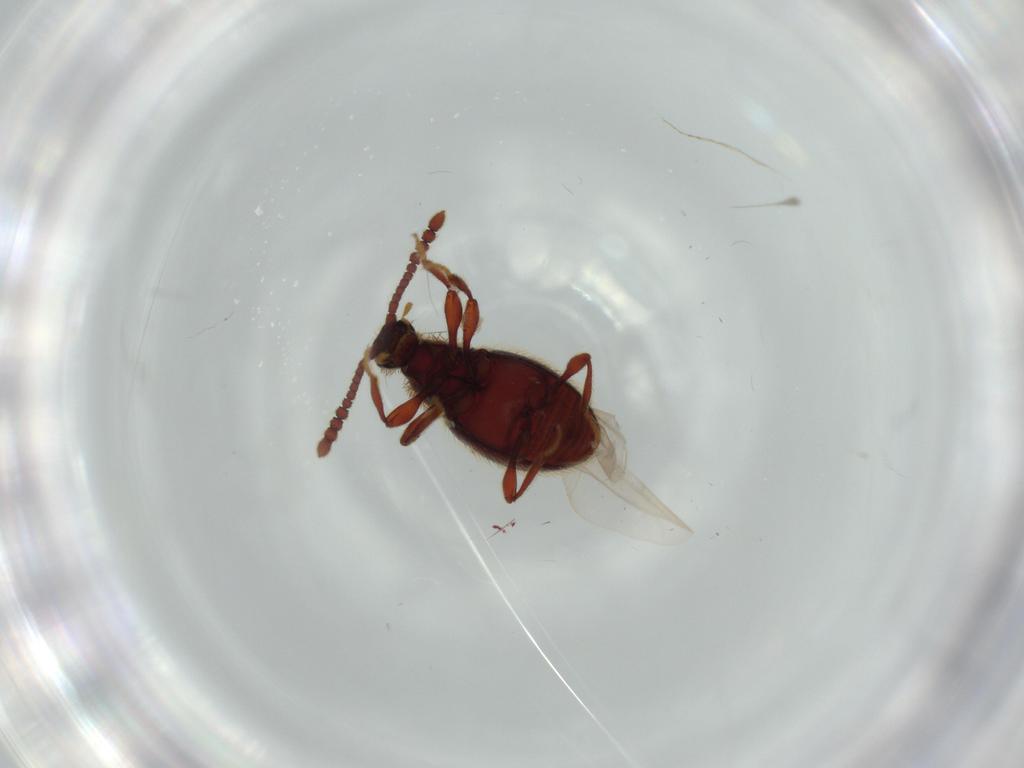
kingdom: Animalia
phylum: Arthropoda
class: Insecta
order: Coleoptera
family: Staphylinidae
